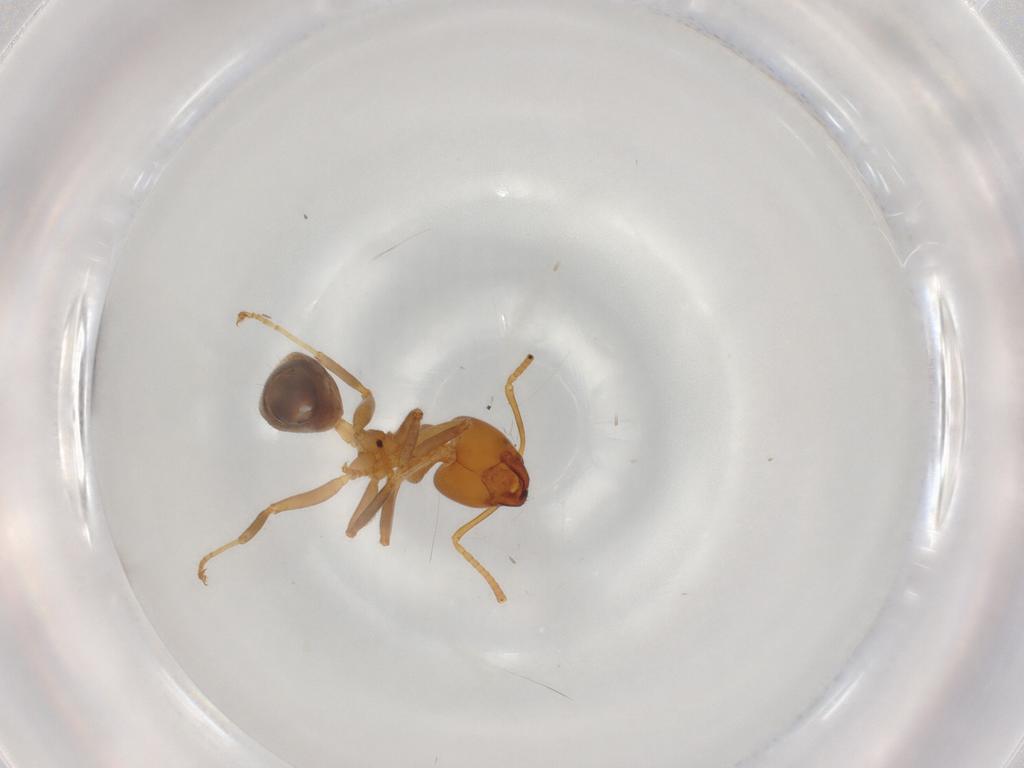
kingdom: Animalia
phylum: Arthropoda
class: Insecta
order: Hymenoptera
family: Formicidae
